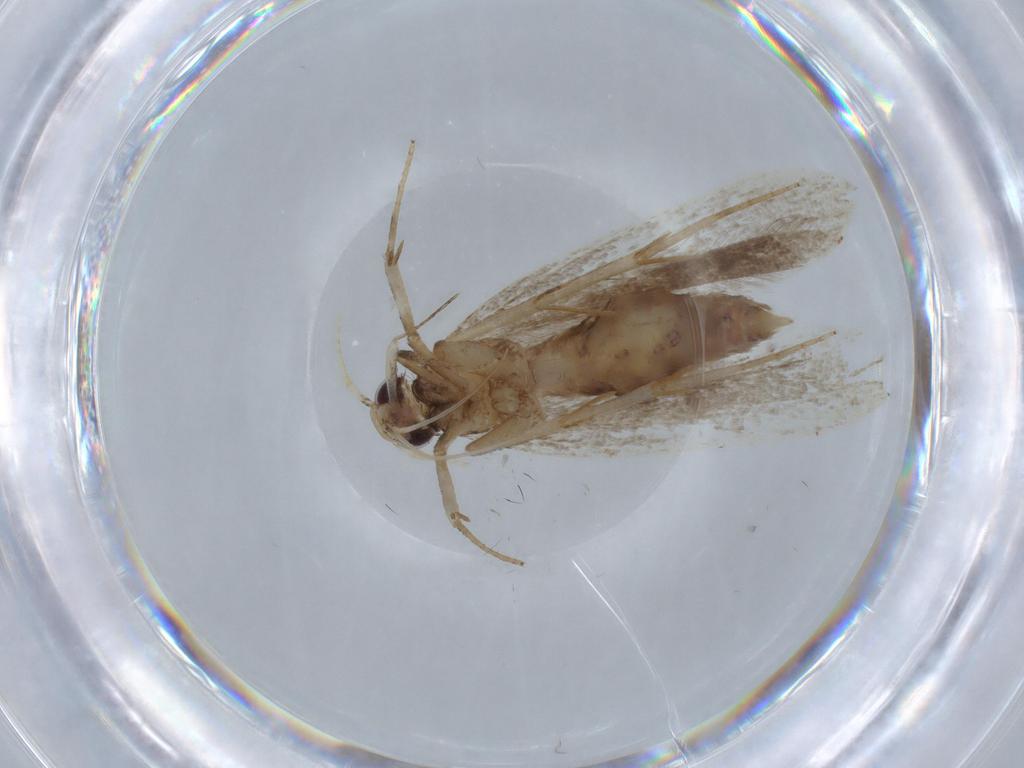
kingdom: Animalia
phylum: Arthropoda
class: Insecta
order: Lepidoptera
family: Gelechiidae
